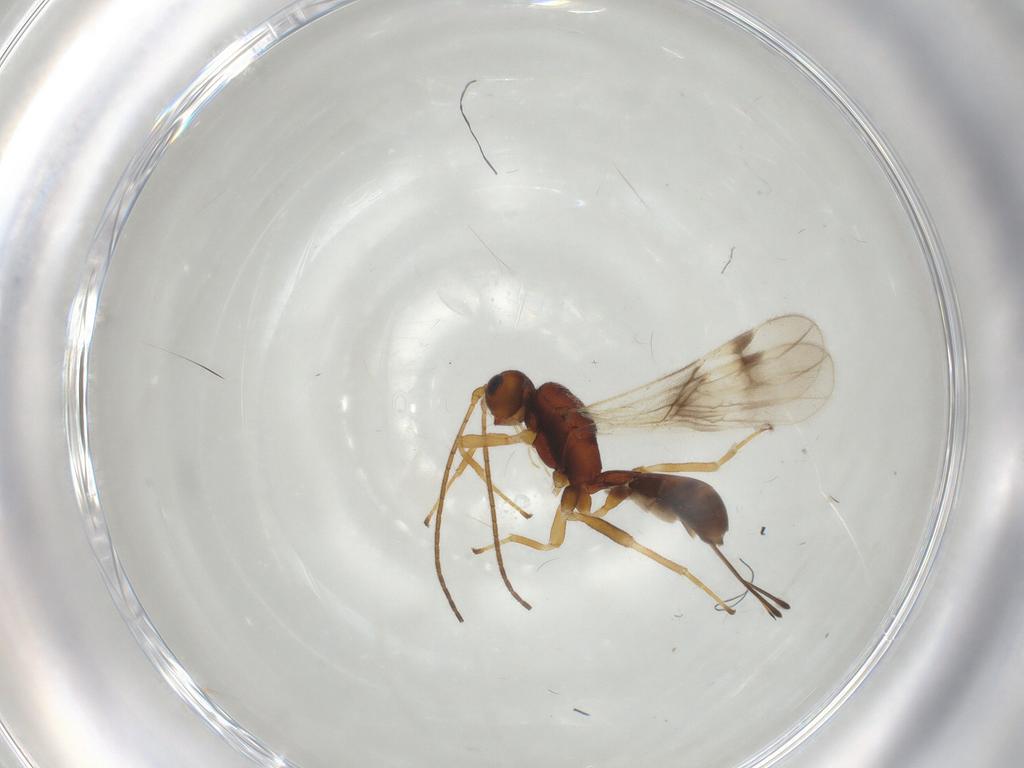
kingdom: Animalia
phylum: Arthropoda
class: Insecta
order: Hymenoptera
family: Braconidae
